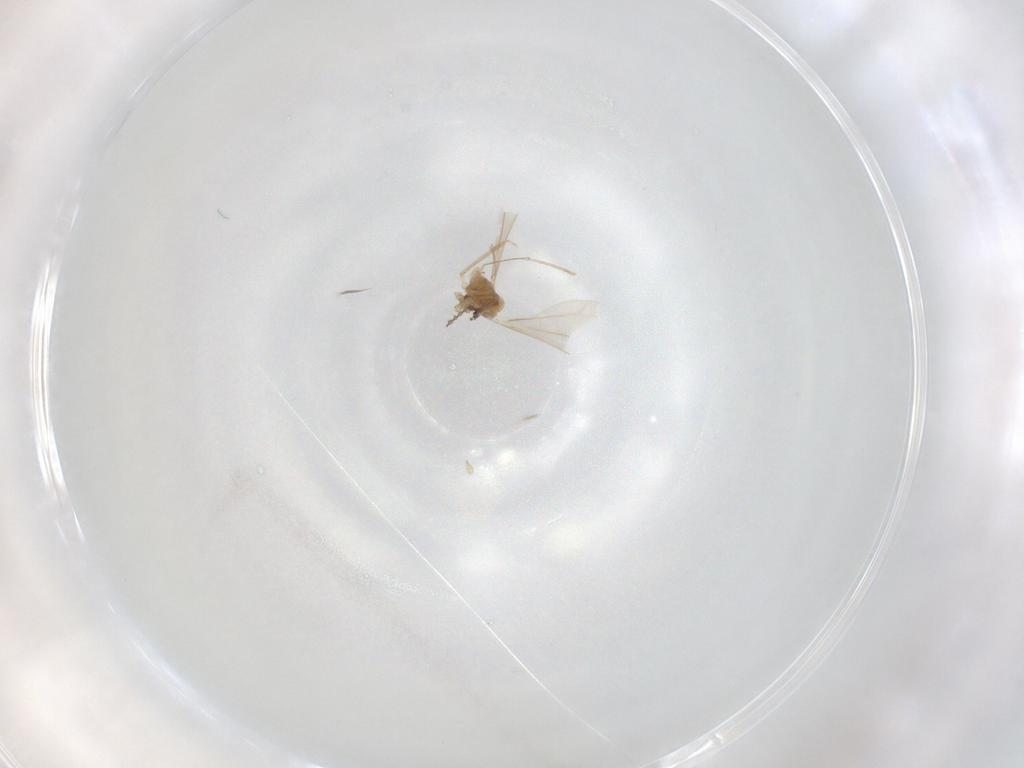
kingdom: Animalia
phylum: Arthropoda
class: Insecta
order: Diptera
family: Cecidomyiidae
